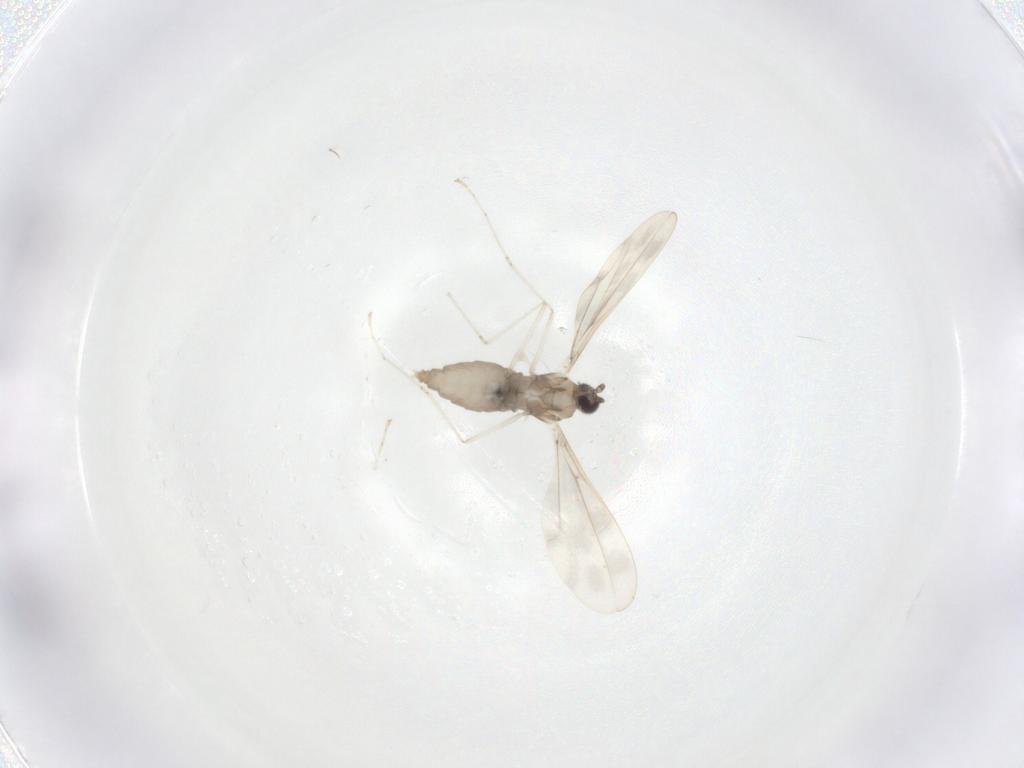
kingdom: Animalia
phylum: Arthropoda
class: Insecta
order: Diptera
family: Cecidomyiidae
